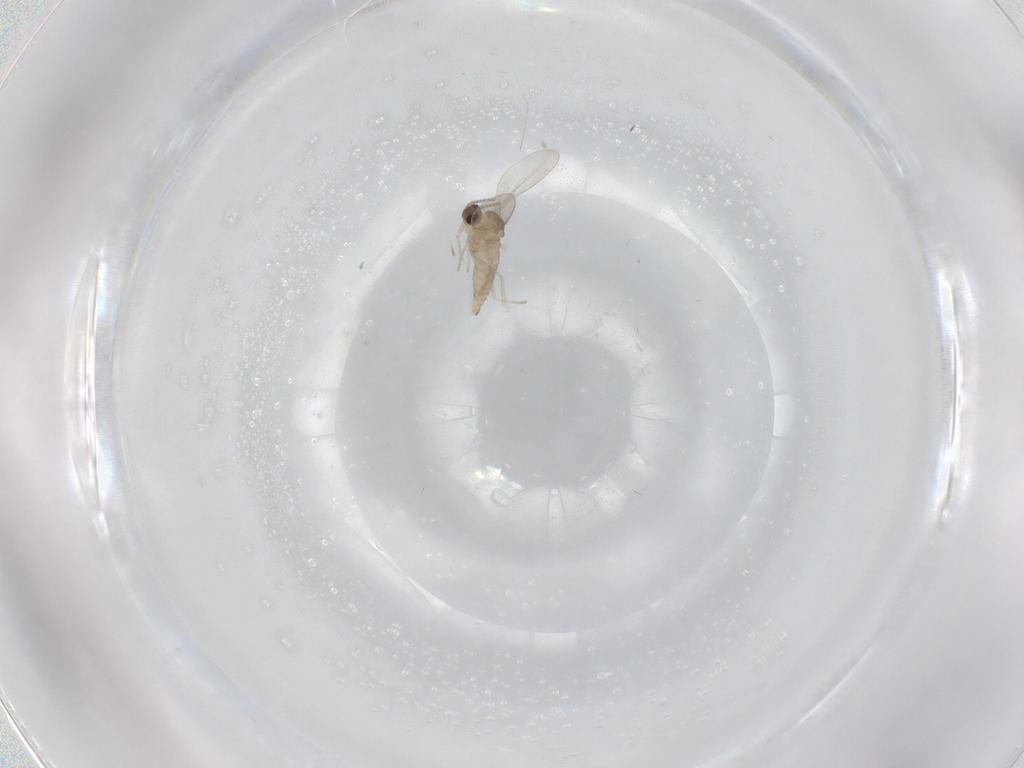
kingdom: Animalia
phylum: Arthropoda
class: Insecta
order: Diptera
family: Cecidomyiidae
